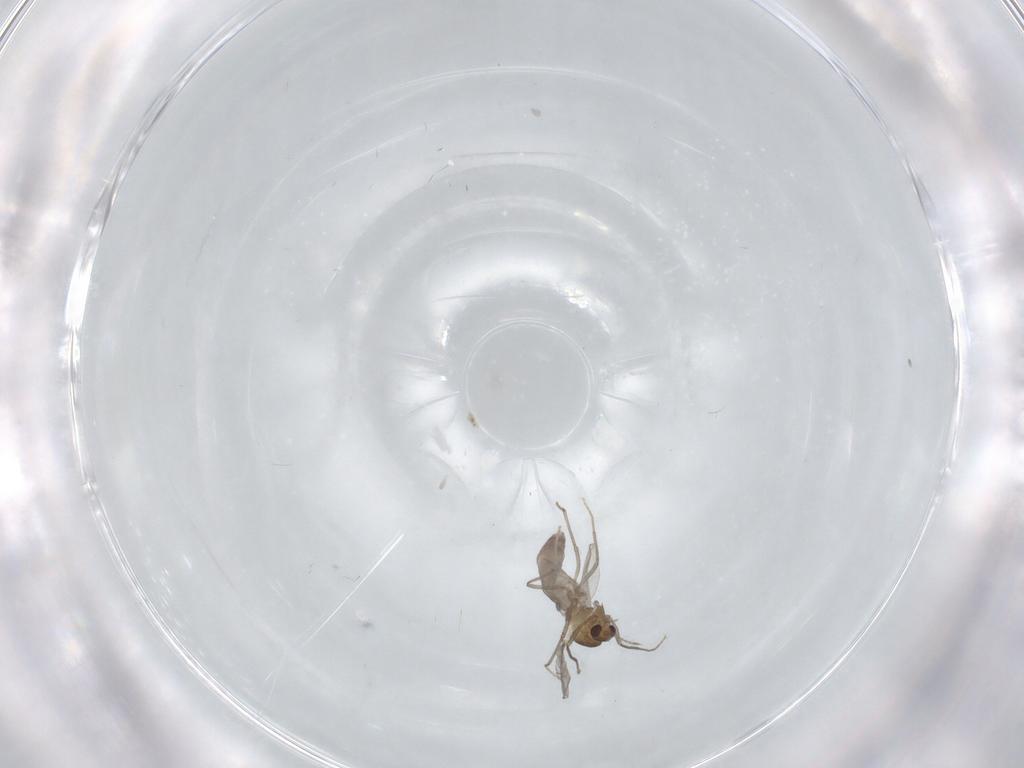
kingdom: Animalia
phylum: Arthropoda
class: Insecta
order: Diptera
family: Chironomidae
